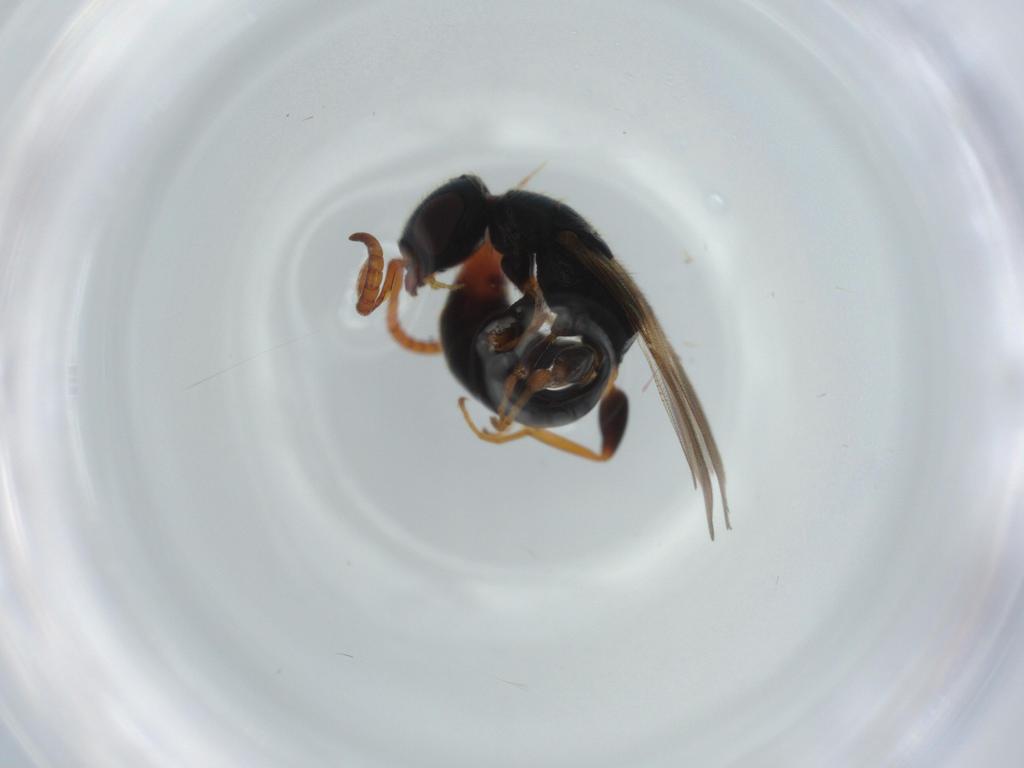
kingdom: Animalia
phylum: Arthropoda
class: Insecta
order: Hymenoptera
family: Bethylidae
